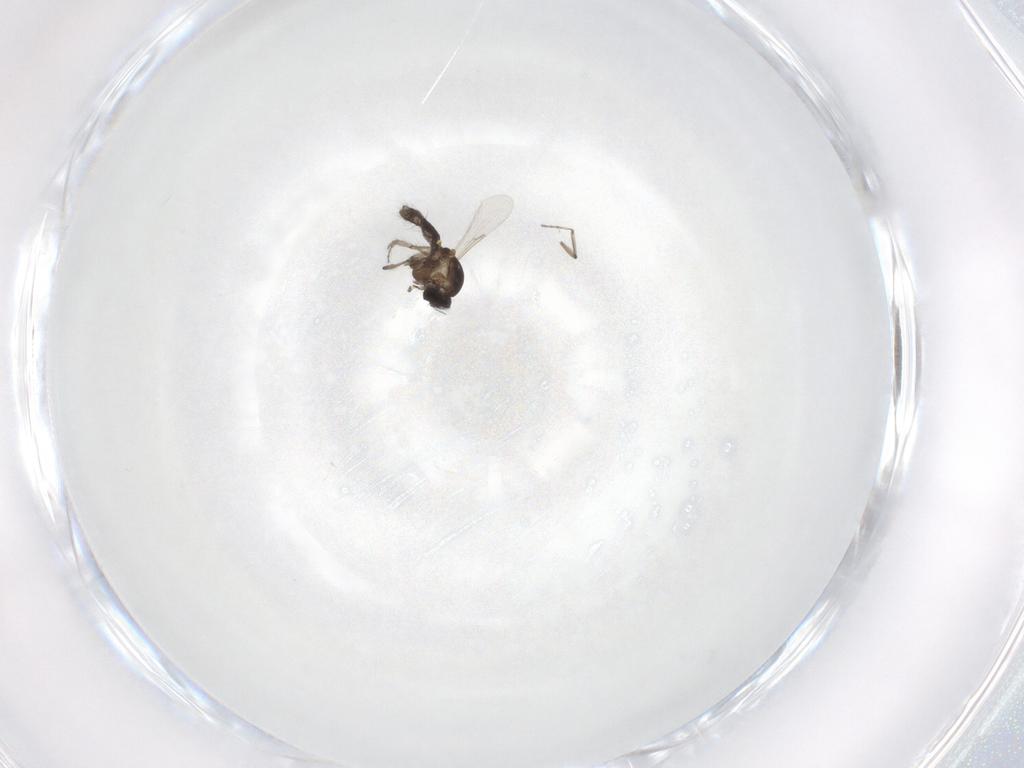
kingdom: Animalia
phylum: Arthropoda
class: Insecta
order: Diptera
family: Ceratopogonidae
